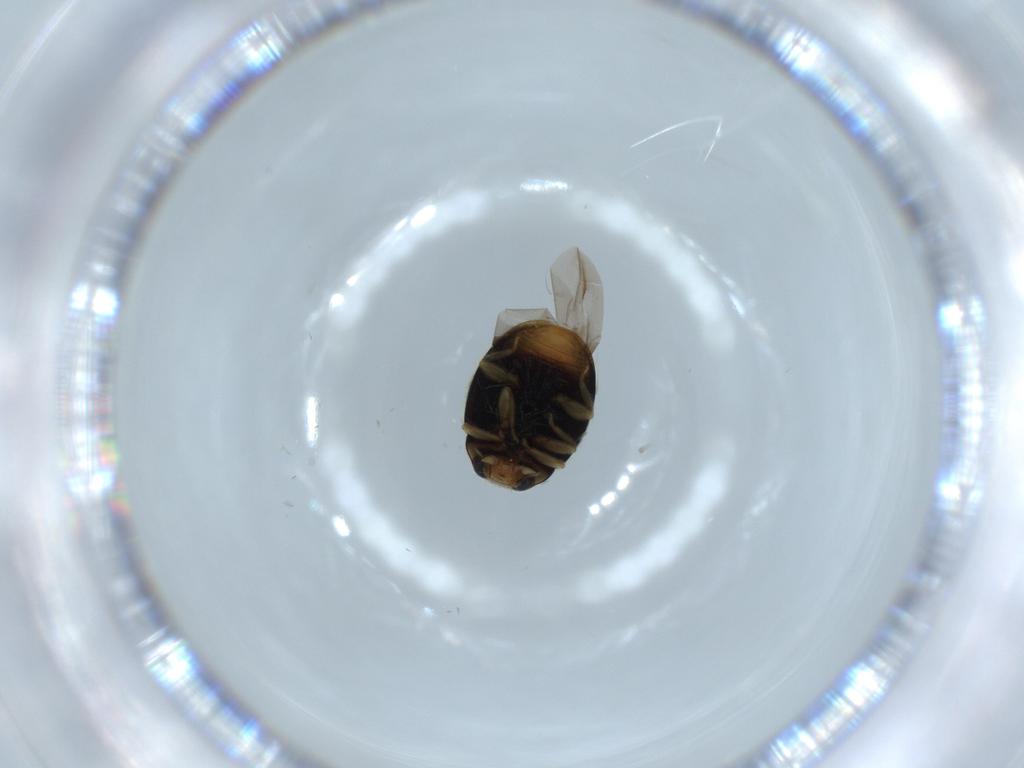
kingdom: Animalia
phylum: Arthropoda
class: Insecta
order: Coleoptera
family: Coccinellidae
